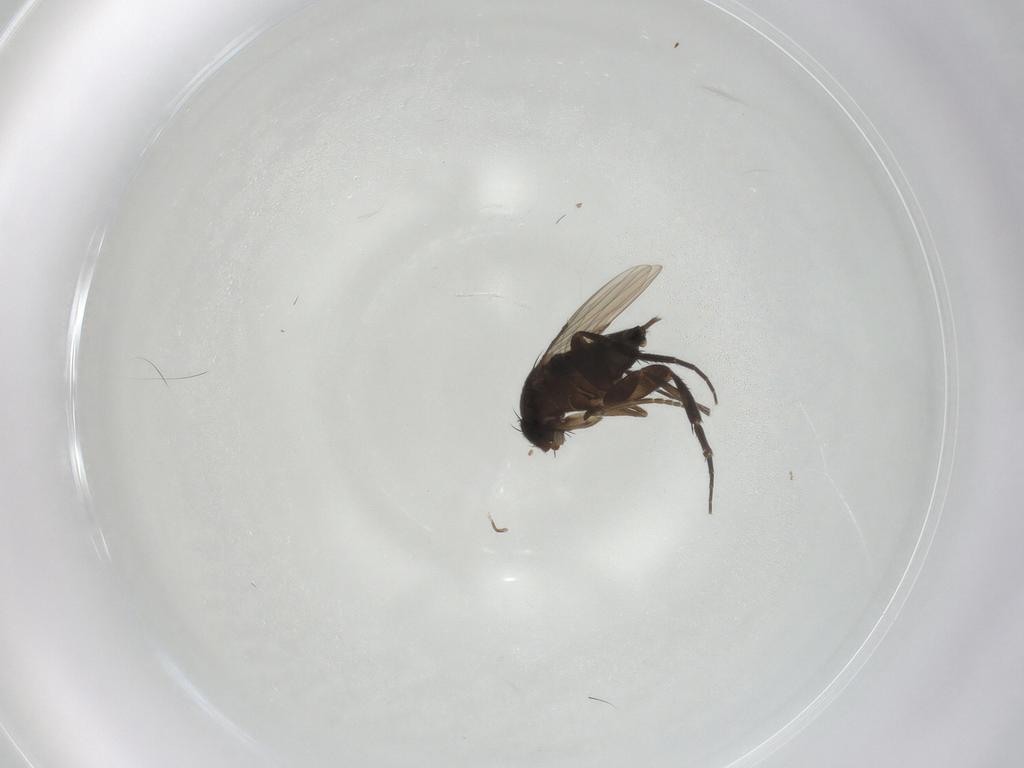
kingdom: Animalia
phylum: Arthropoda
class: Insecta
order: Diptera
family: Phoridae
